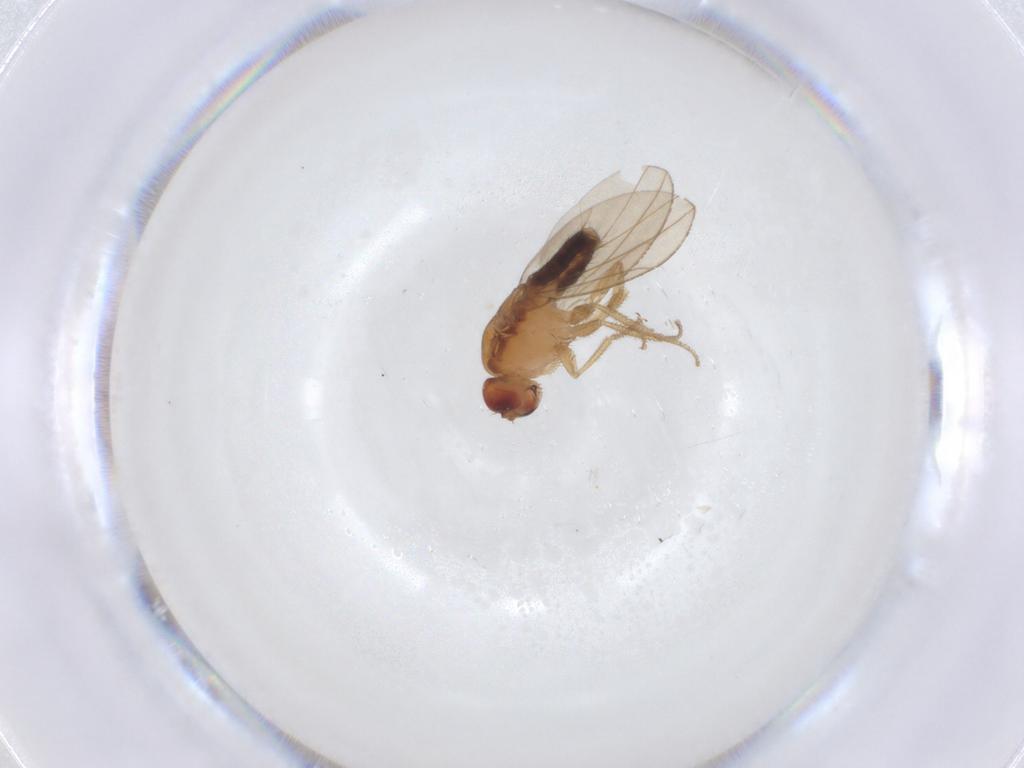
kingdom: Animalia
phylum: Arthropoda
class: Insecta
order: Diptera
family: Drosophilidae
